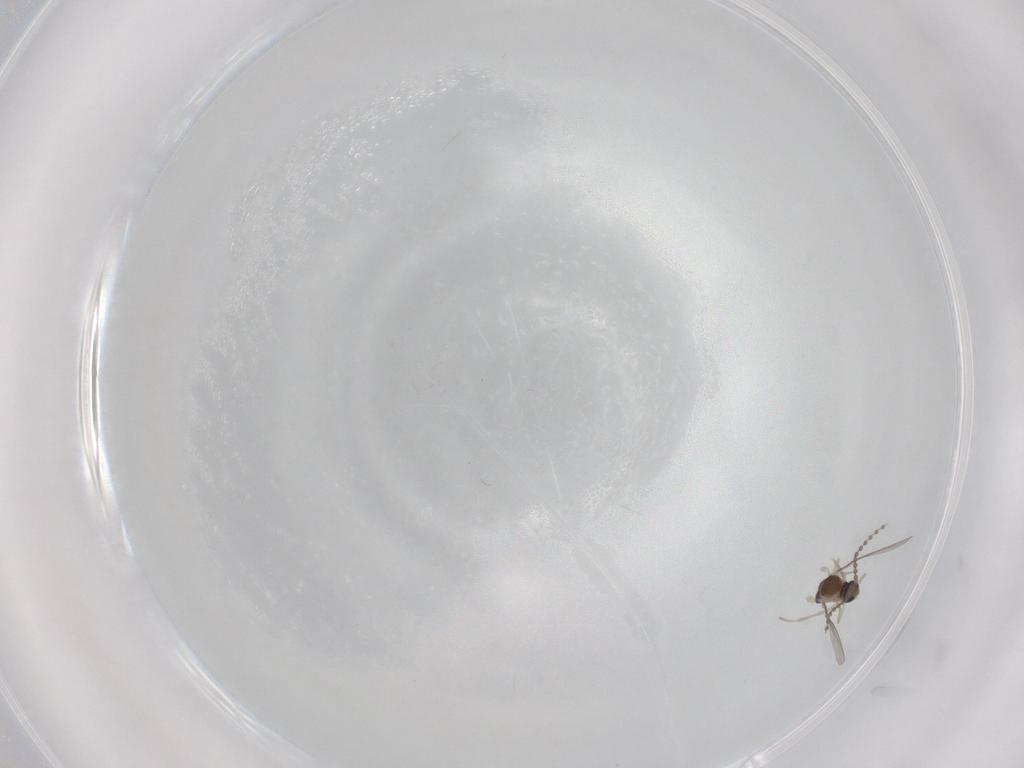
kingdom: Animalia
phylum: Arthropoda
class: Insecta
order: Diptera
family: Cecidomyiidae
